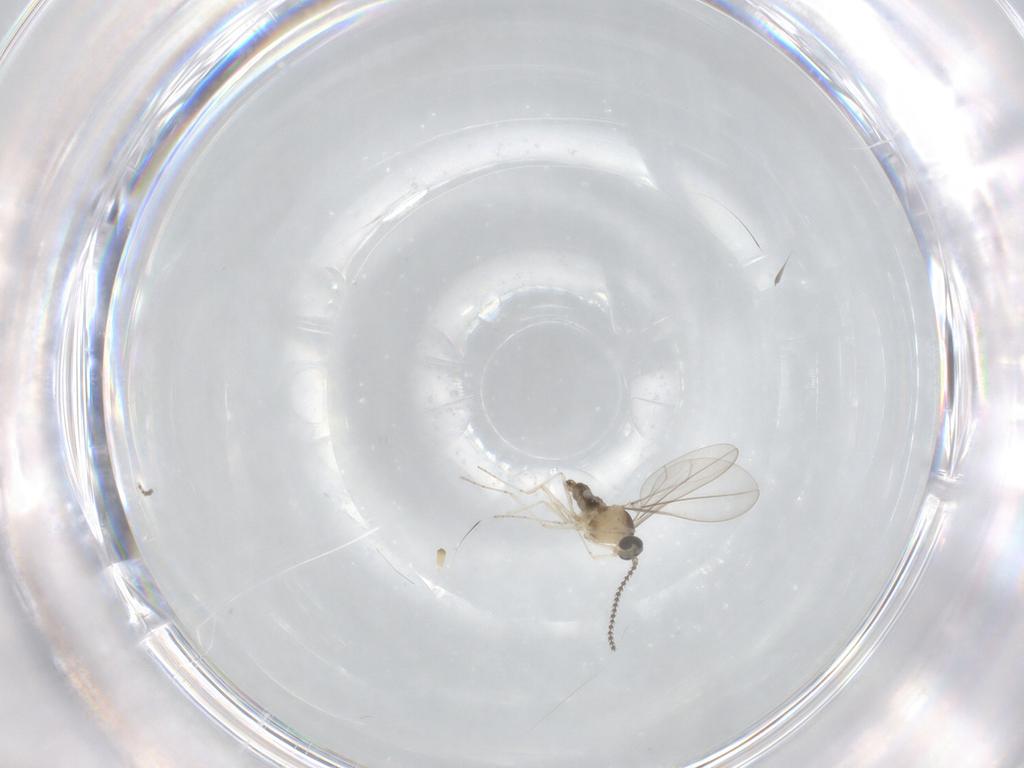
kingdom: Animalia
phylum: Arthropoda
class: Insecta
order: Diptera
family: Cecidomyiidae
